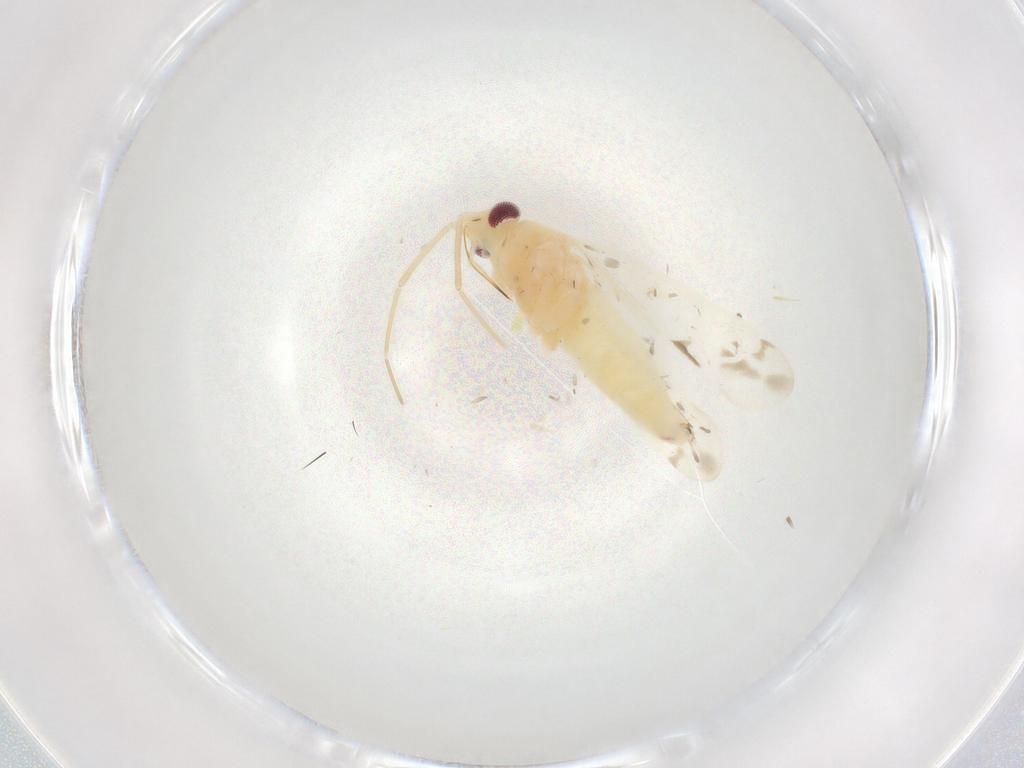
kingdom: Animalia
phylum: Arthropoda
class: Insecta
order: Hemiptera
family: Miridae
